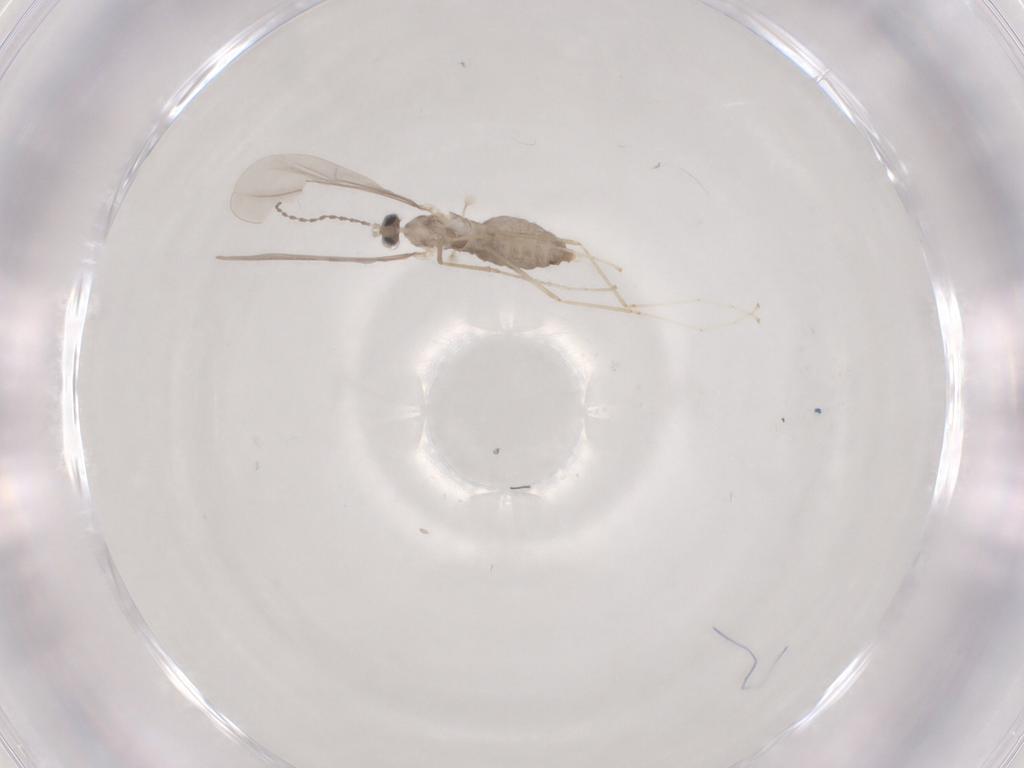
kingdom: Animalia
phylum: Arthropoda
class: Insecta
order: Diptera
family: Cecidomyiidae
